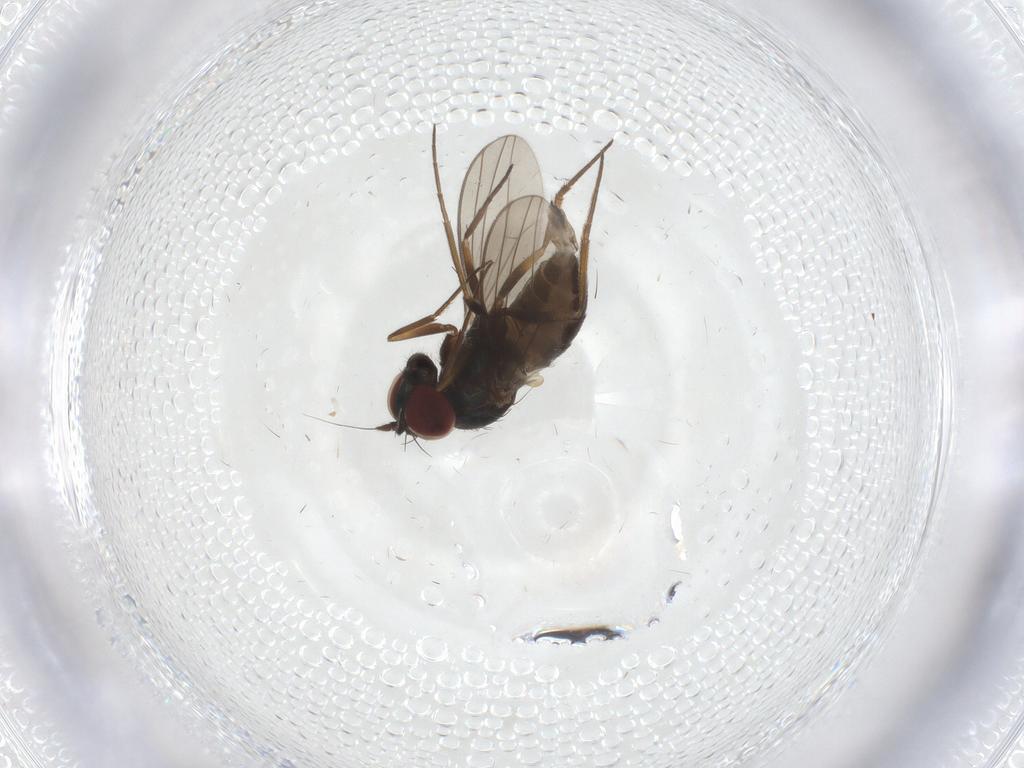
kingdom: Animalia
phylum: Arthropoda
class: Insecta
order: Diptera
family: Dolichopodidae
